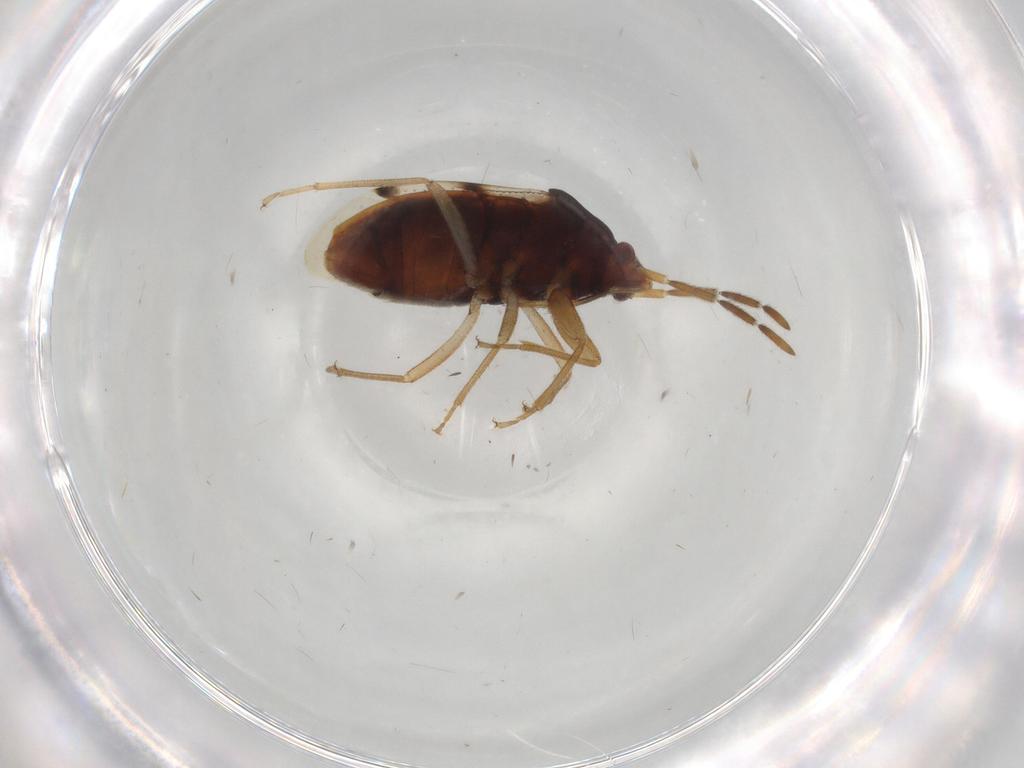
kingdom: Animalia
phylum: Arthropoda
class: Insecta
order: Hemiptera
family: Rhyparochromidae
